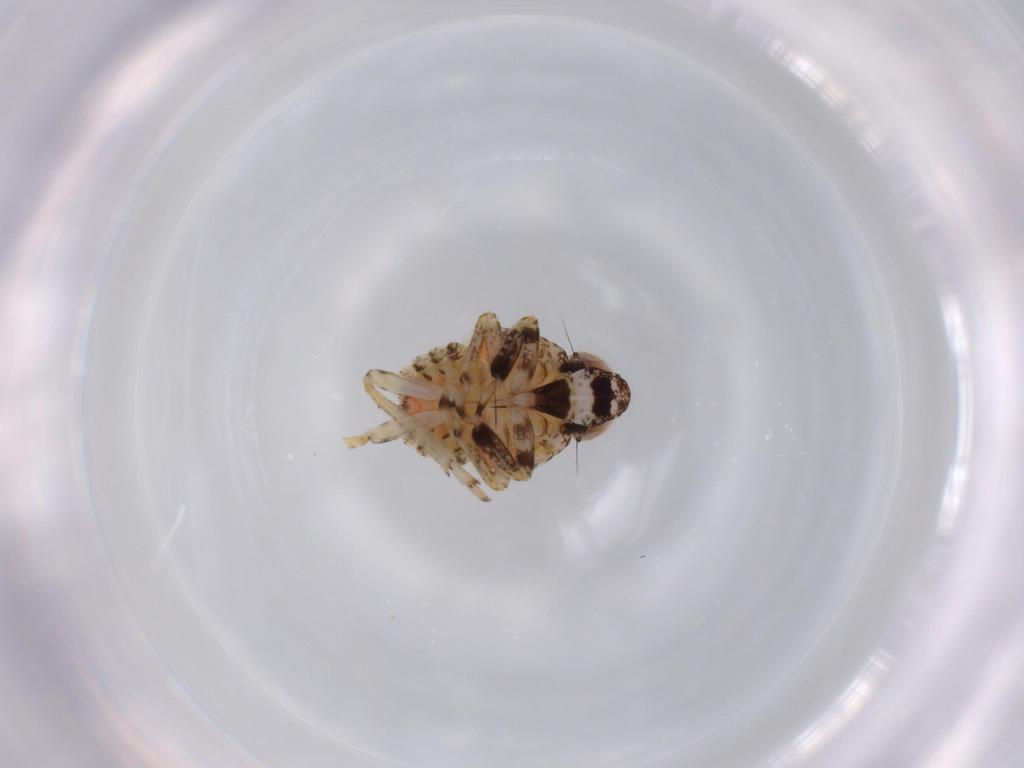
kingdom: Animalia
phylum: Arthropoda
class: Insecta
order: Hemiptera
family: Issidae
